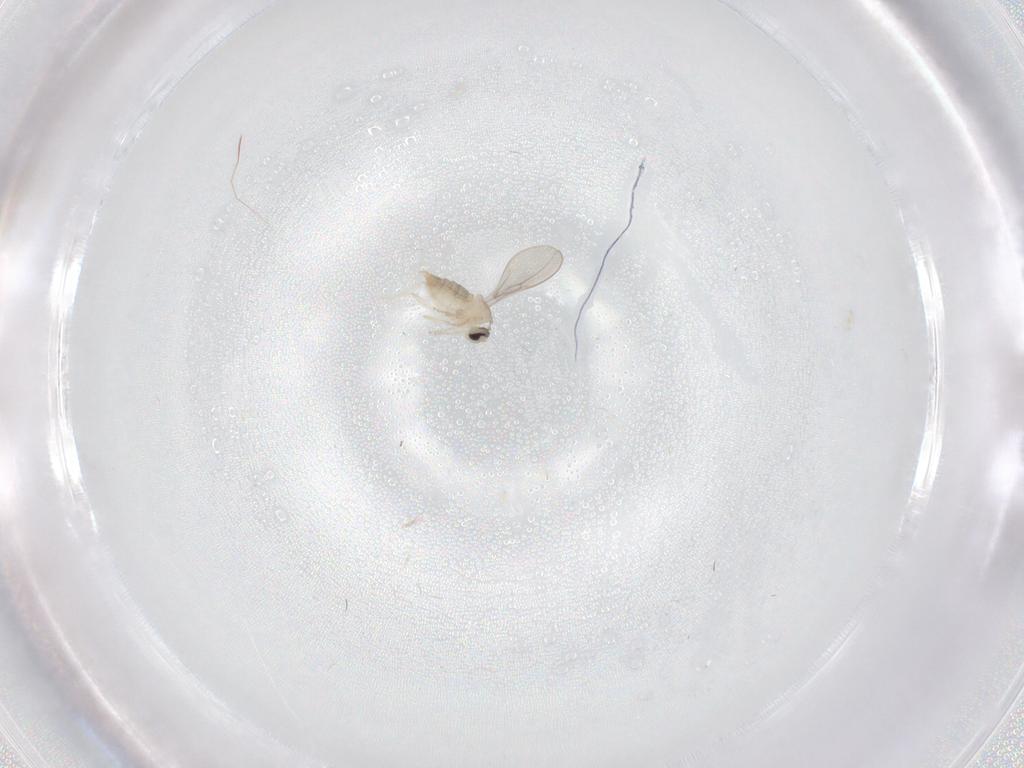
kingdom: Animalia
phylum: Arthropoda
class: Insecta
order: Diptera
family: Cecidomyiidae
